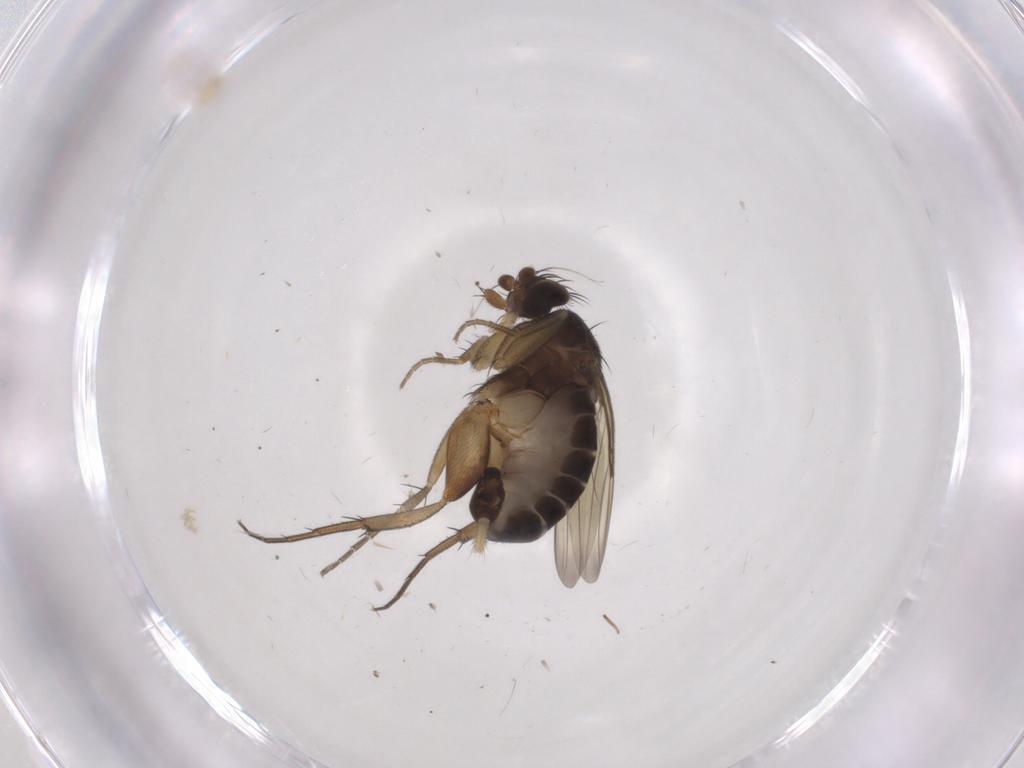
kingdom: Animalia
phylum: Arthropoda
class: Insecta
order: Diptera
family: Phoridae
